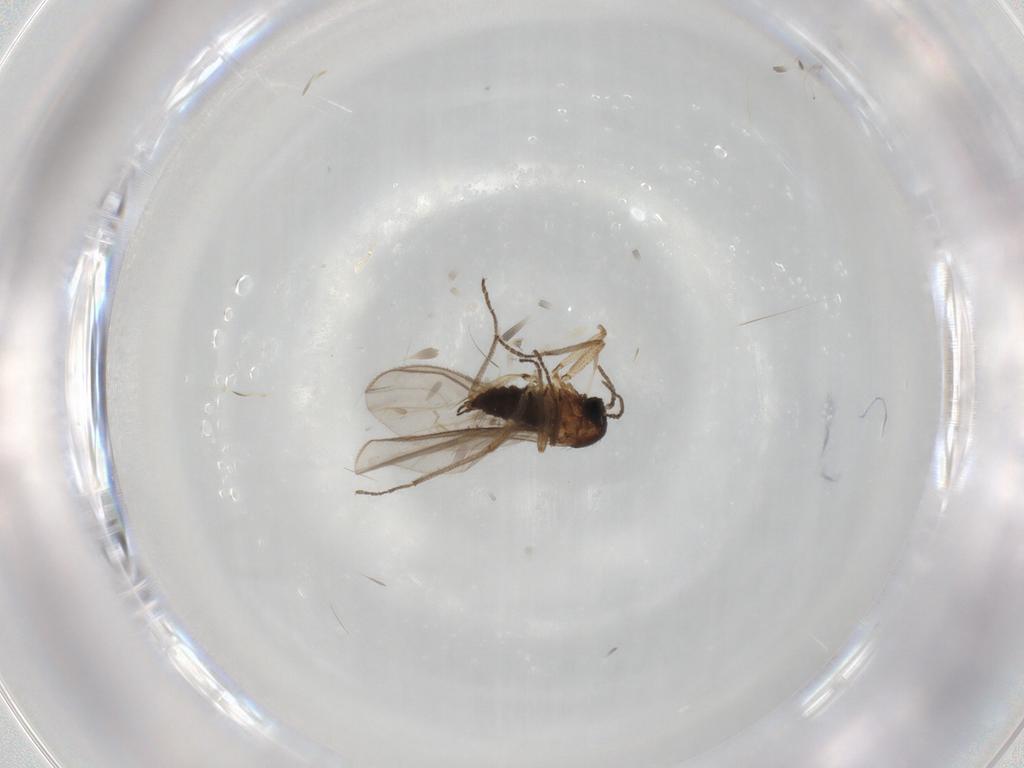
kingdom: Animalia
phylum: Arthropoda
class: Insecta
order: Diptera
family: Sciaridae
